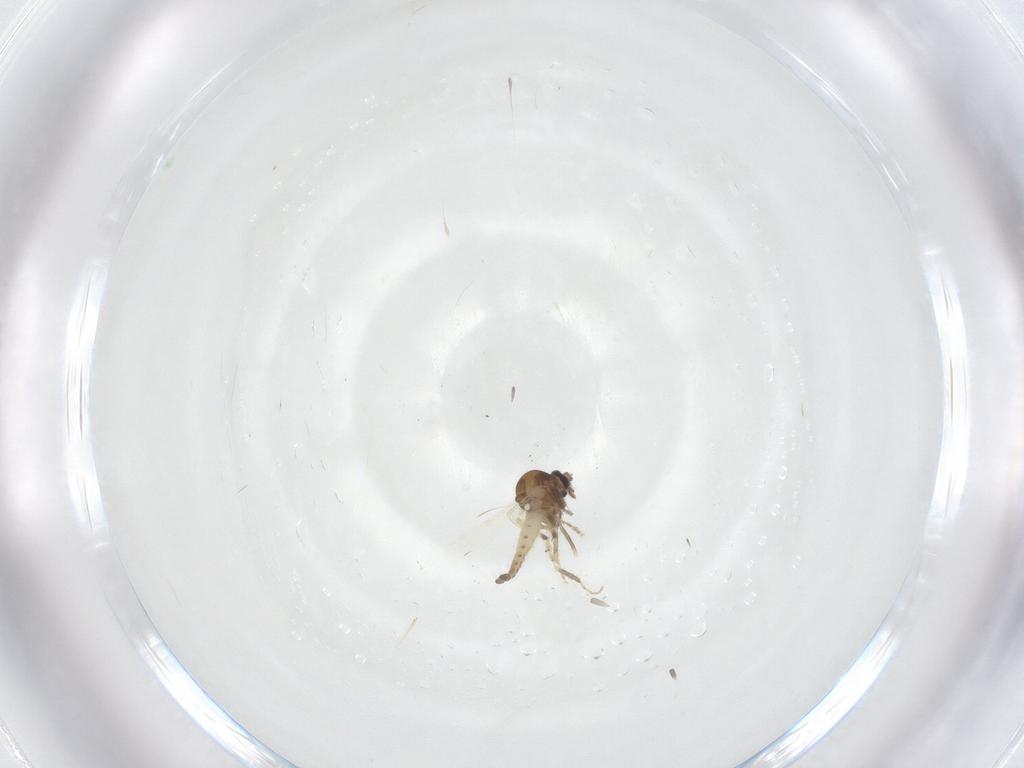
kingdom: Animalia
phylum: Arthropoda
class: Insecta
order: Diptera
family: Ceratopogonidae
